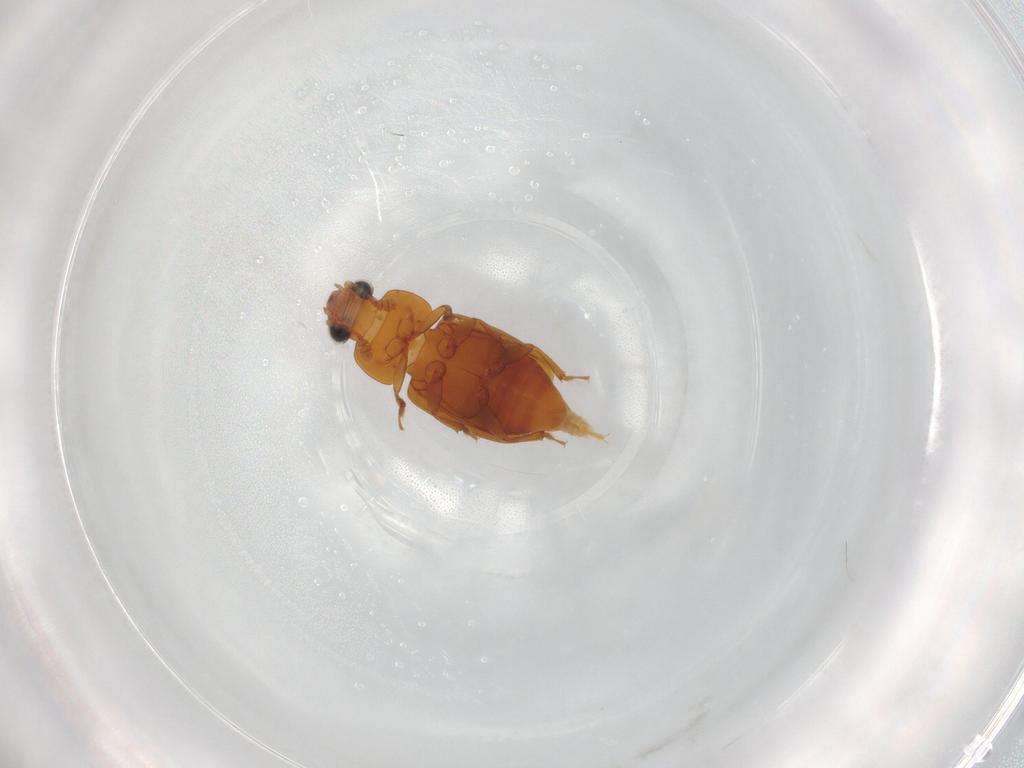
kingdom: Animalia
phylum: Arthropoda
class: Insecta
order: Coleoptera
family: Nitidulidae
